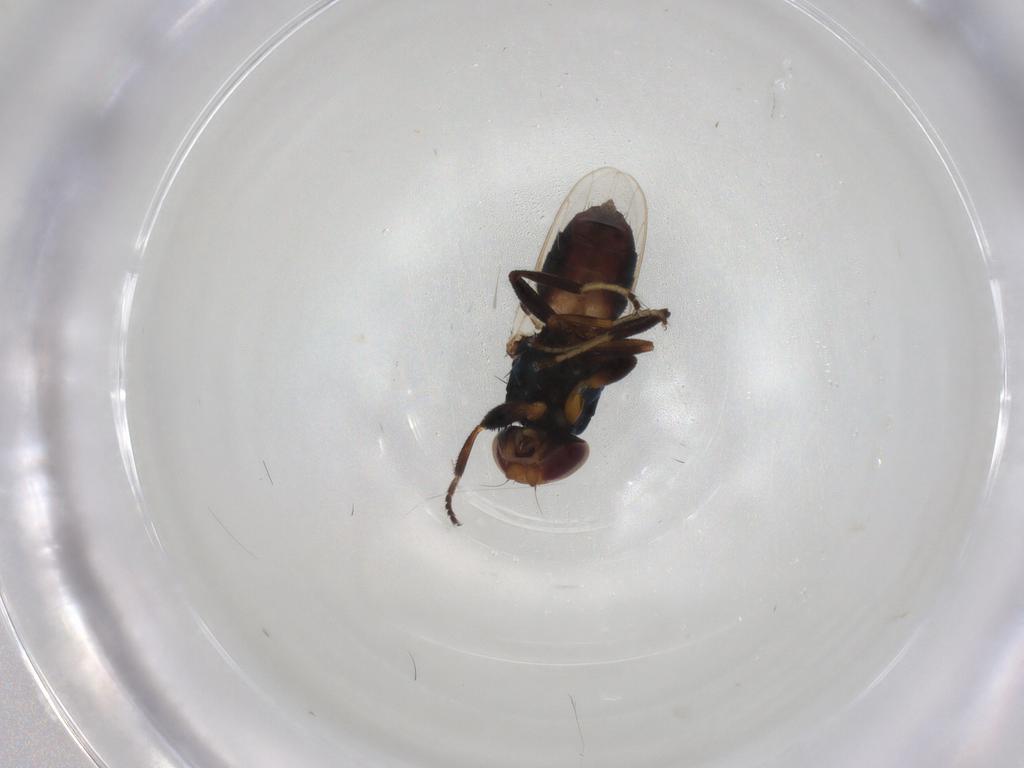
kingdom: Animalia
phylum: Arthropoda
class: Insecta
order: Diptera
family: Chloropidae
